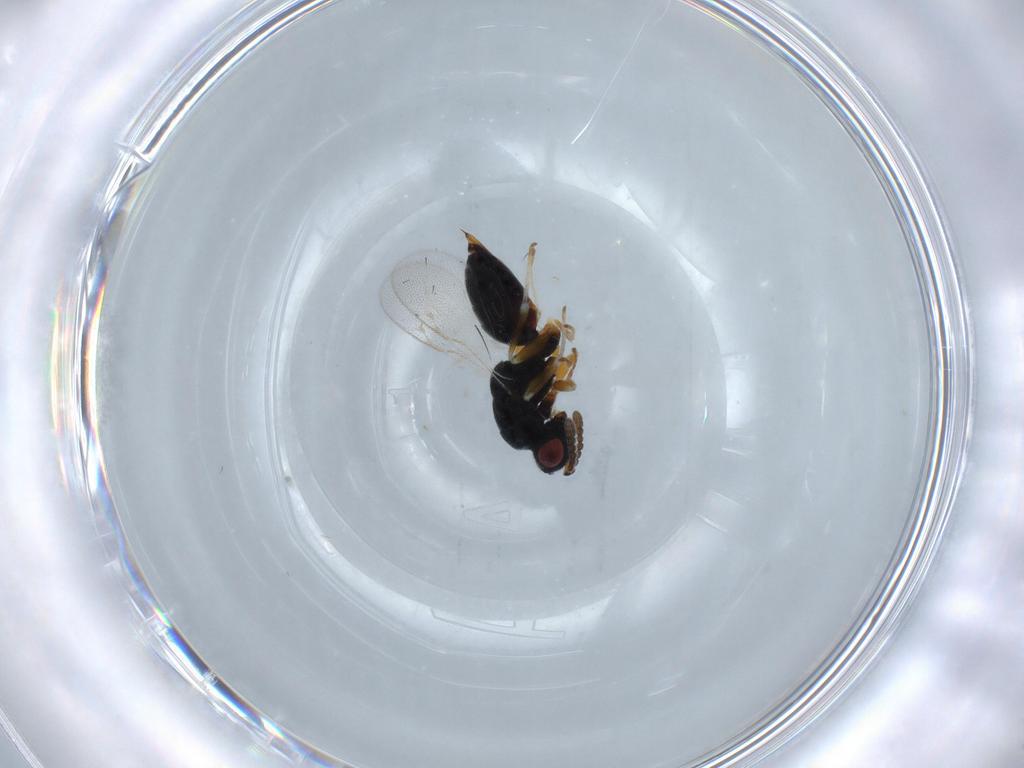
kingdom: Animalia
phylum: Arthropoda
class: Insecta
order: Hymenoptera
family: Eurytomidae
